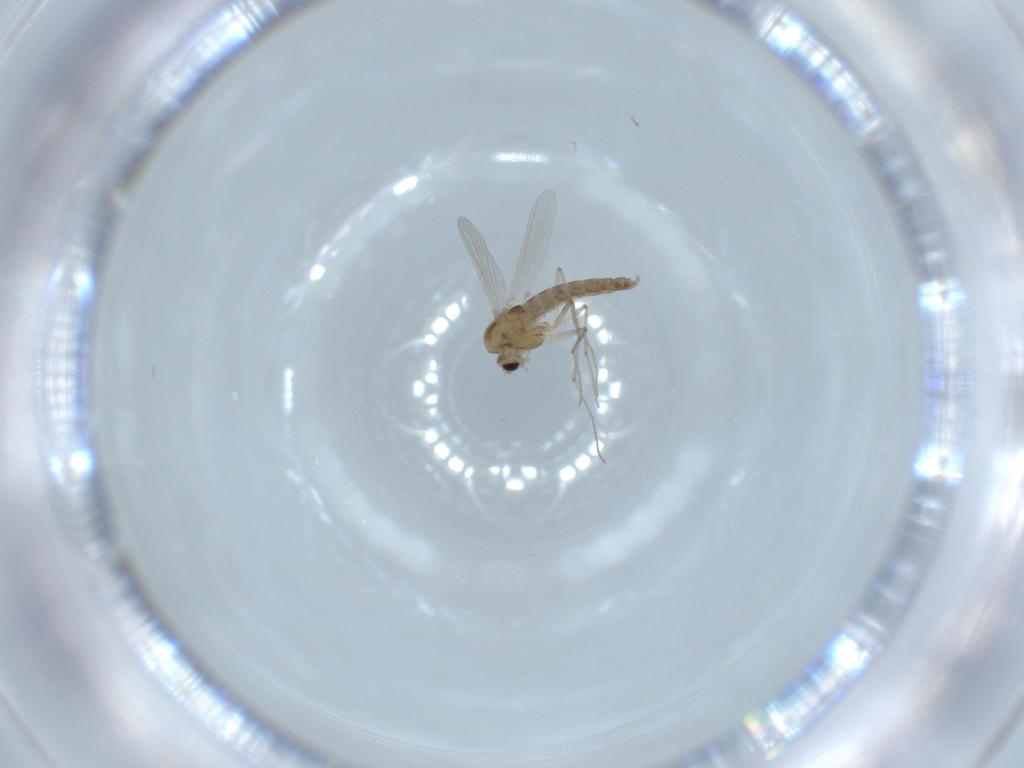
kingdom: Animalia
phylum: Arthropoda
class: Insecta
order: Diptera
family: Chironomidae
